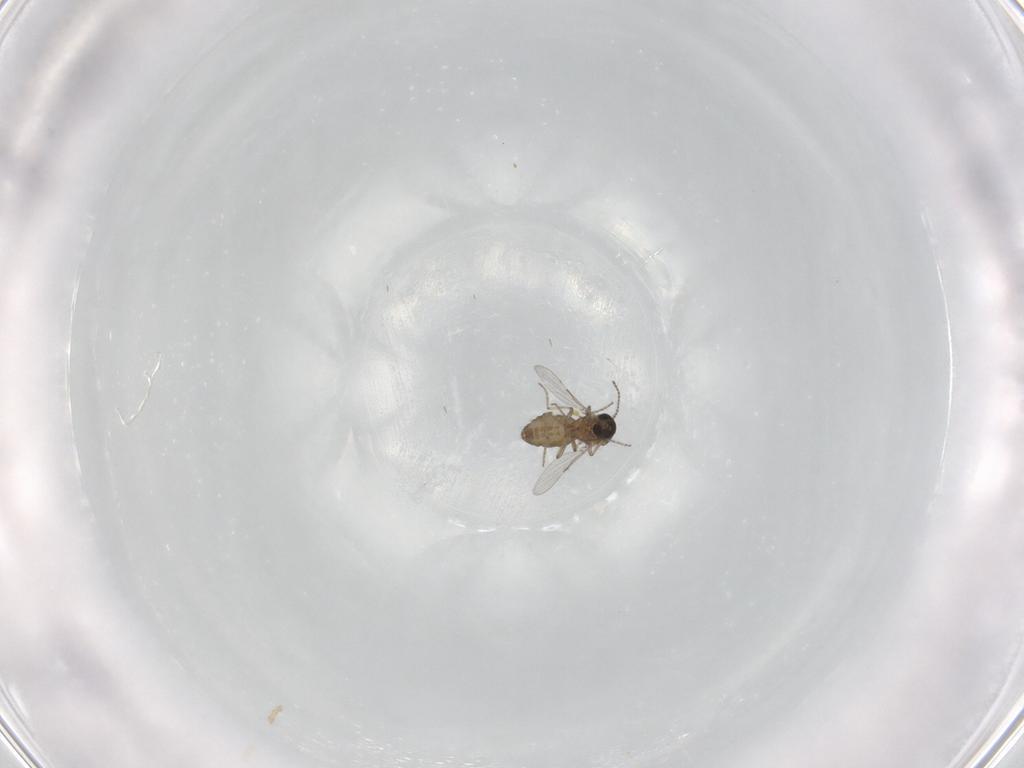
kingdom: Animalia
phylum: Arthropoda
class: Insecta
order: Diptera
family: Ceratopogonidae
